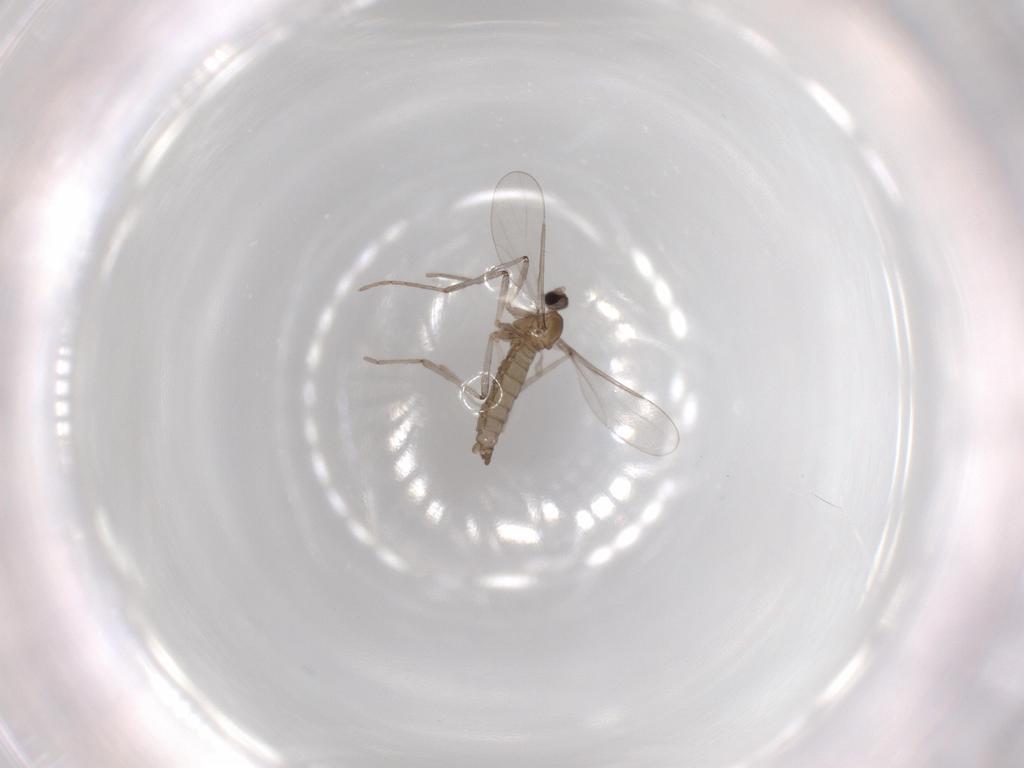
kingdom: Animalia
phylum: Arthropoda
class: Insecta
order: Diptera
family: Cecidomyiidae
